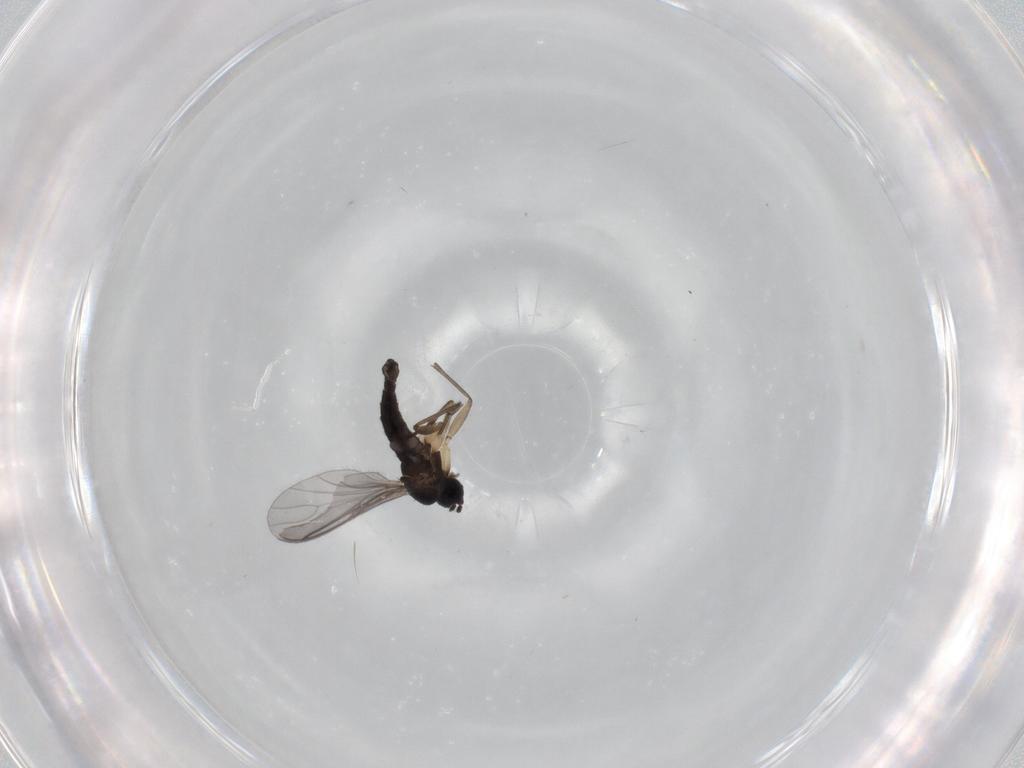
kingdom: Animalia
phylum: Arthropoda
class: Insecta
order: Diptera
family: Sciaridae
